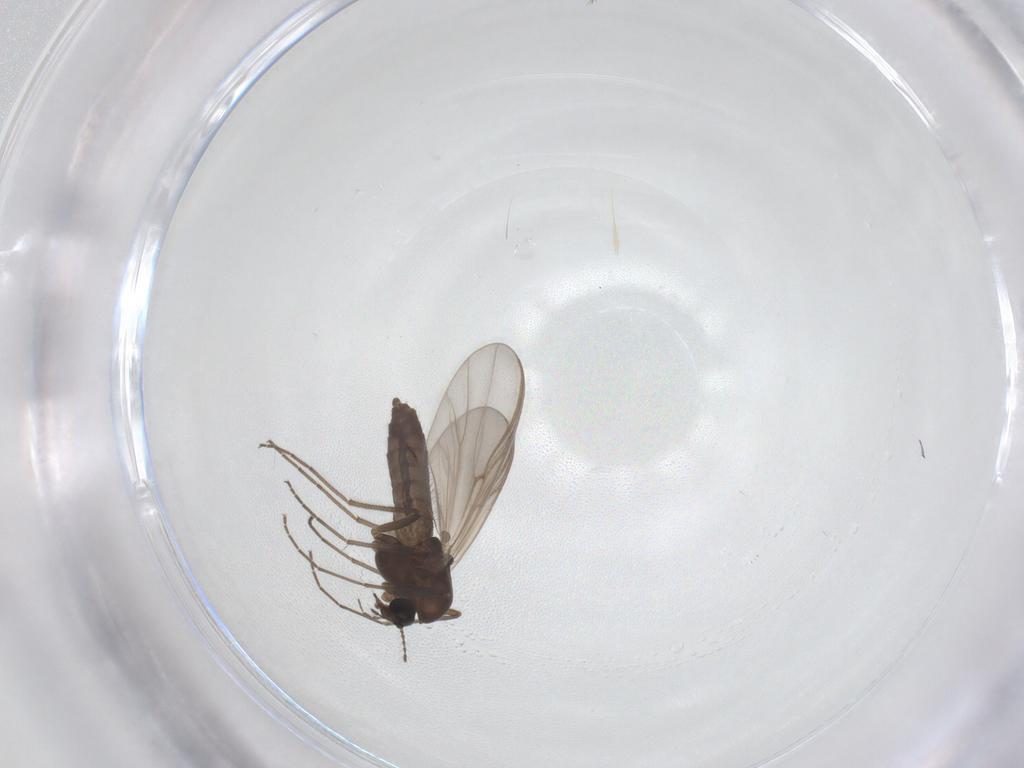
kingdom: Animalia
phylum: Arthropoda
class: Insecta
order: Diptera
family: Chironomidae
